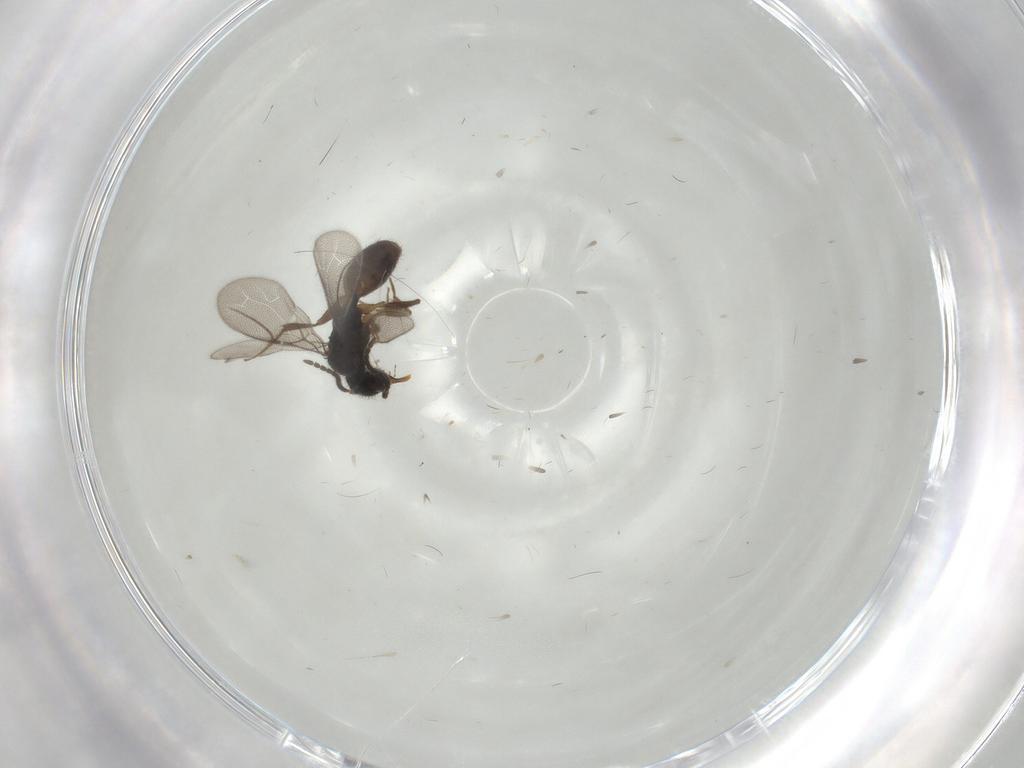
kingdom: Animalia
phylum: Arthropoda
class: Insecta
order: Hymenoptera
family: Bethylidae
